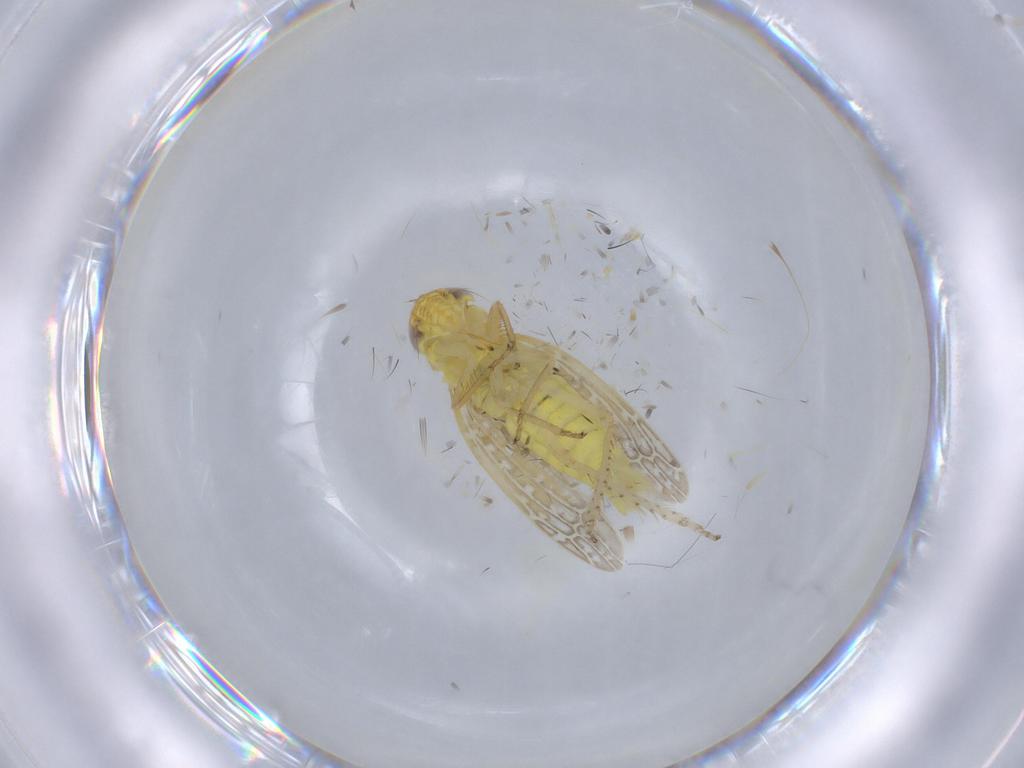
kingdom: Animalia
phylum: Arthropoda
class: Insecta
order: Hemiptera
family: Cicadellidae
